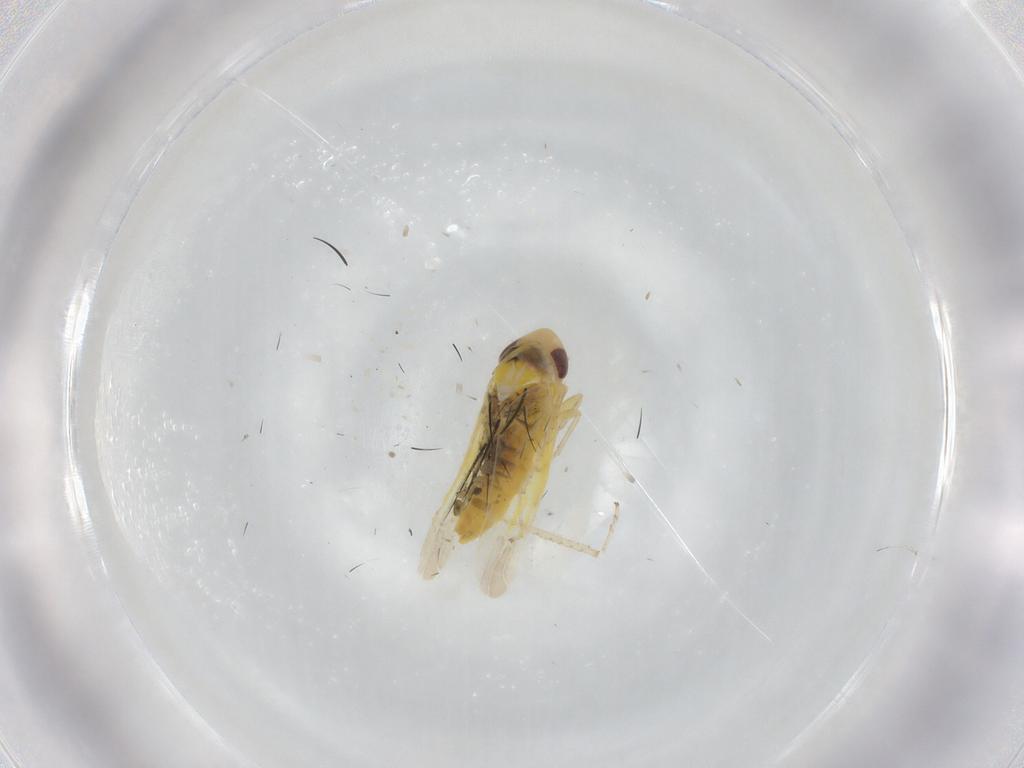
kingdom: Animalia
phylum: Arthropoda
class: Insecta
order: Hemiptera
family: Cicadellidae
